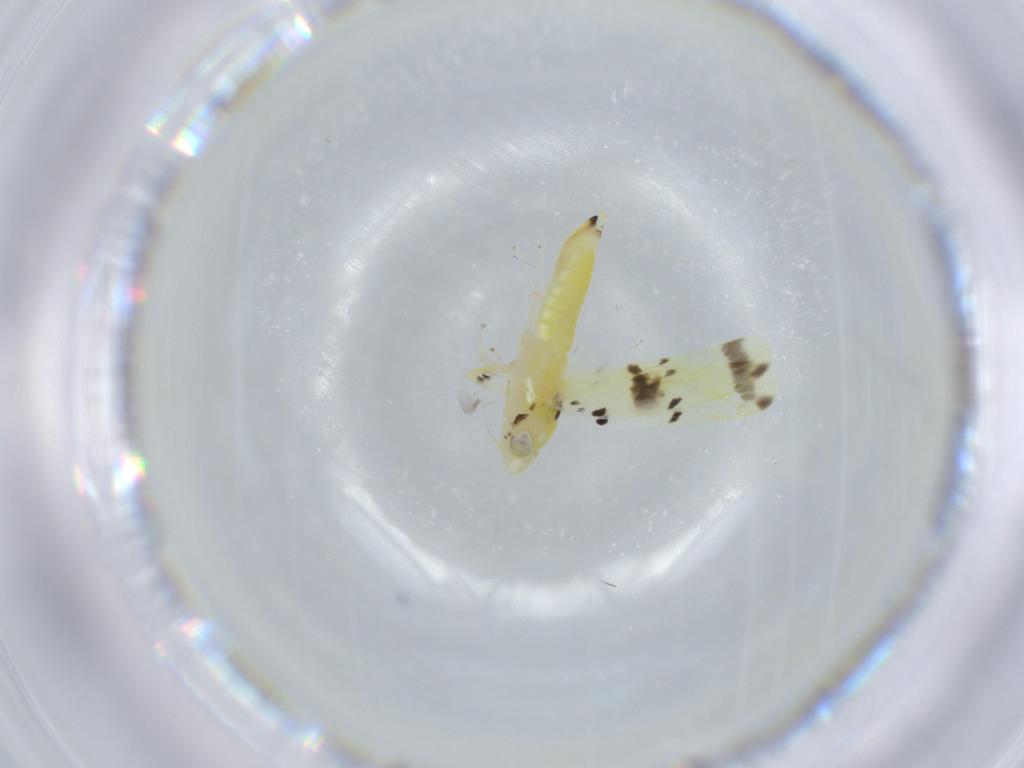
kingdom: Animalia
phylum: Arthropoda
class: Insecta
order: Hemiptera
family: Cicadellidae
